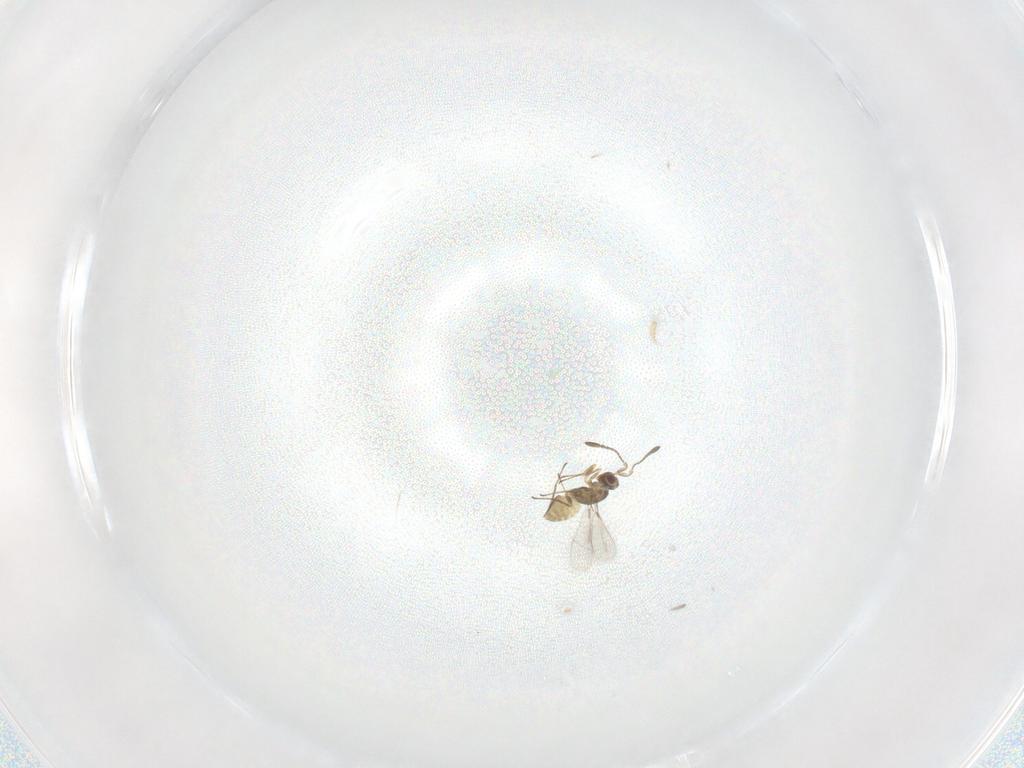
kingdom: Animalia
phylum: Arthropoda
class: Insecta
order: Hymenoptera
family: Mymaridae
